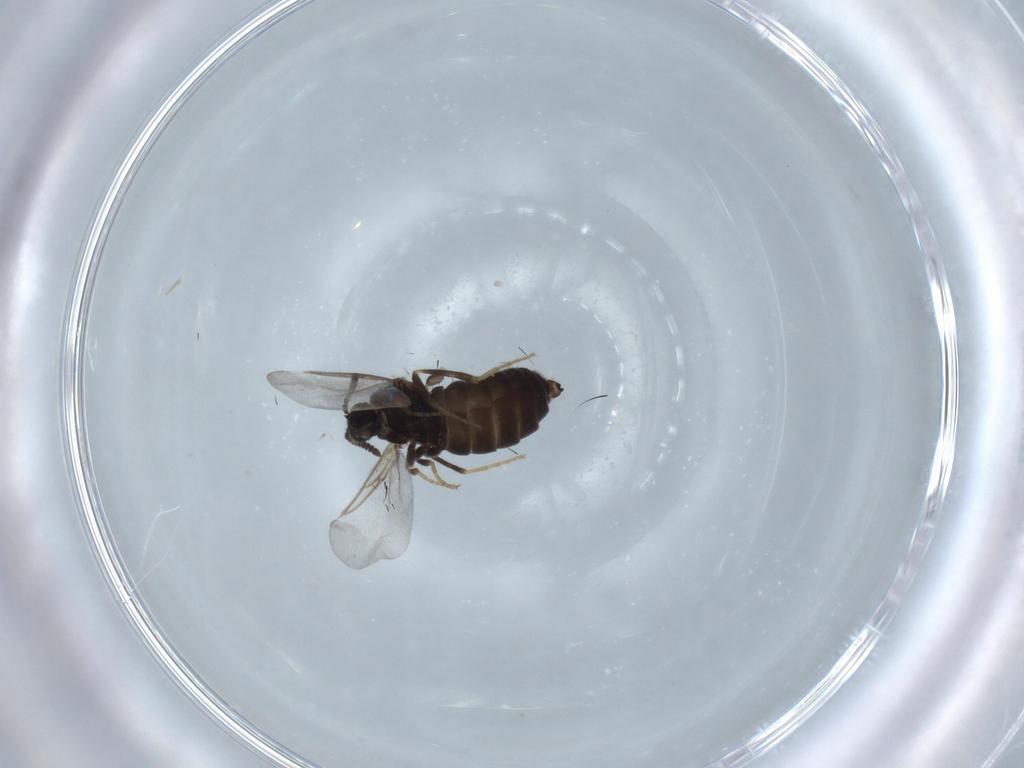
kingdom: Animalia
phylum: Arthropoda
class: Insecta
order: Diptera
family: Scatopsidae
